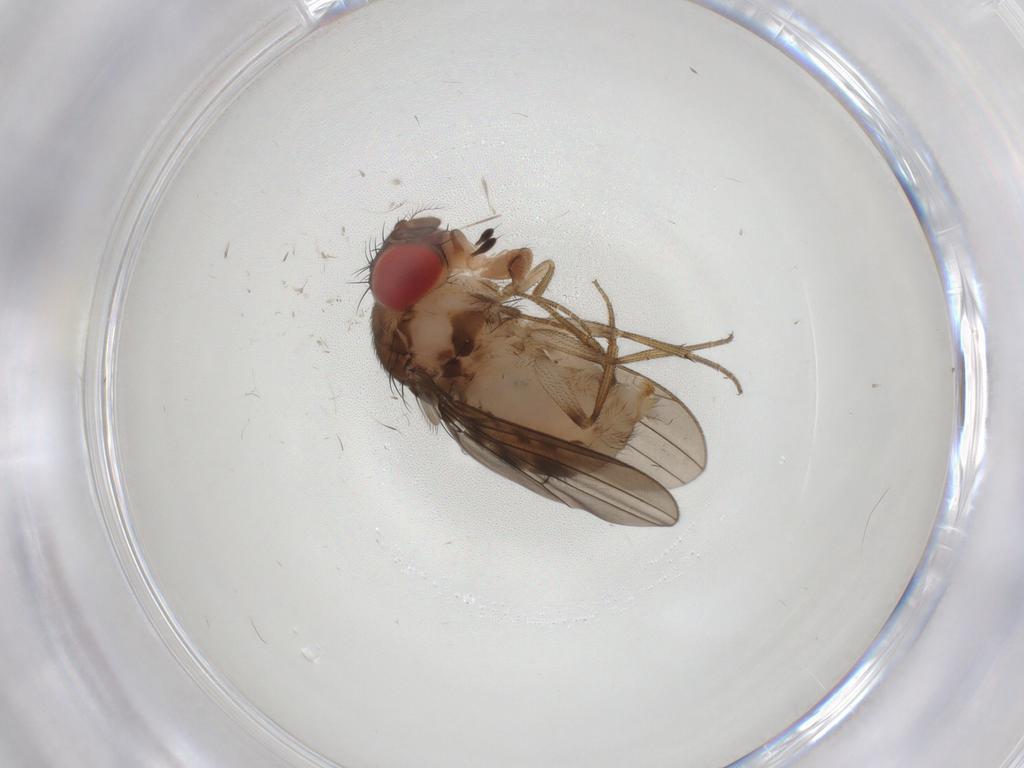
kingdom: Animalia
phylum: Arthropoda
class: Insecta
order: Diptera
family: Drosophilidae
